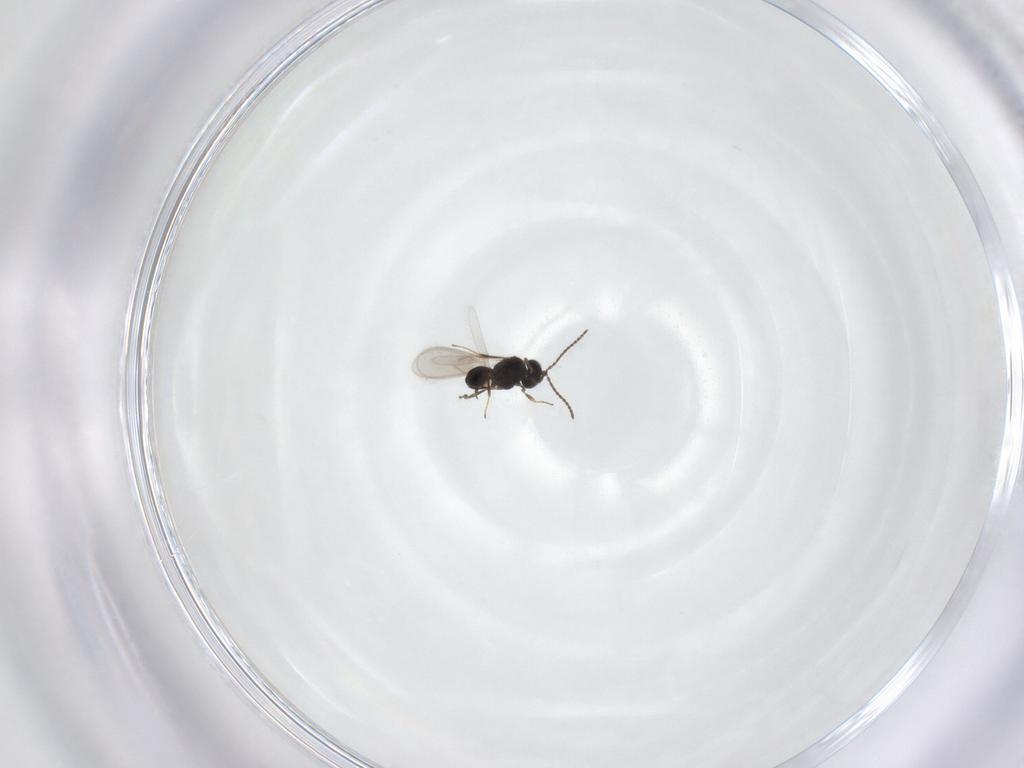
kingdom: Animalia
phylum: Arthropoda
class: Insecta
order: Hymenoptera
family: Scelionidae
